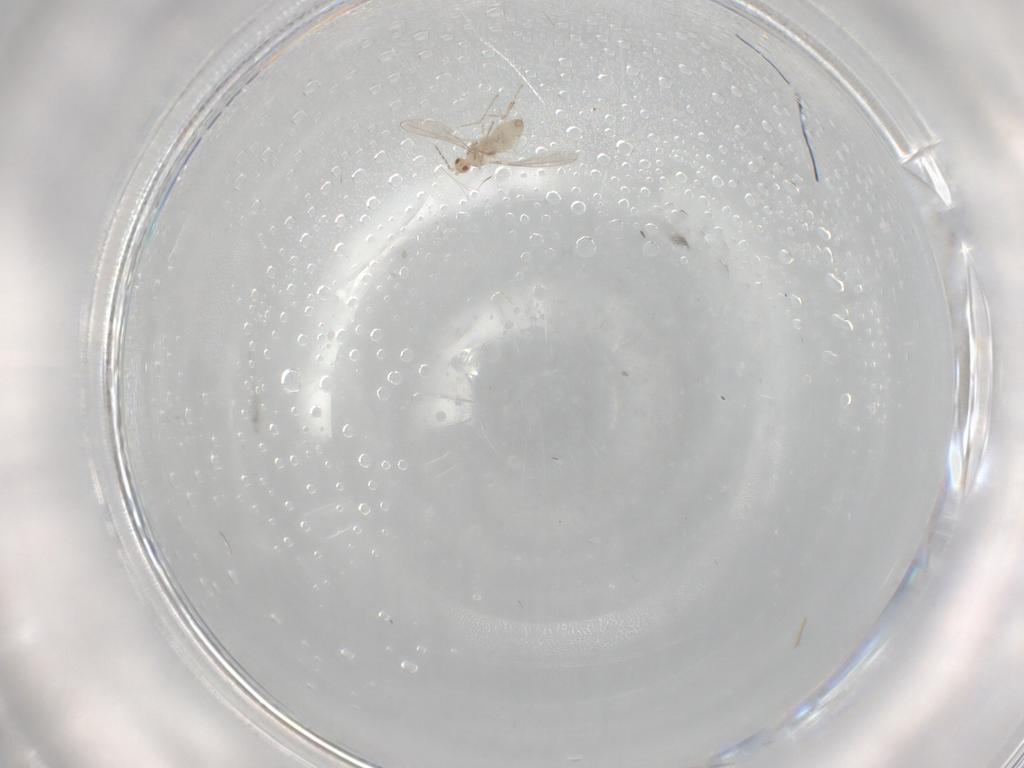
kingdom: Animalia
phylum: Arthropoda
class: Insecta
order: Diptera
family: Cecidomyiidae
